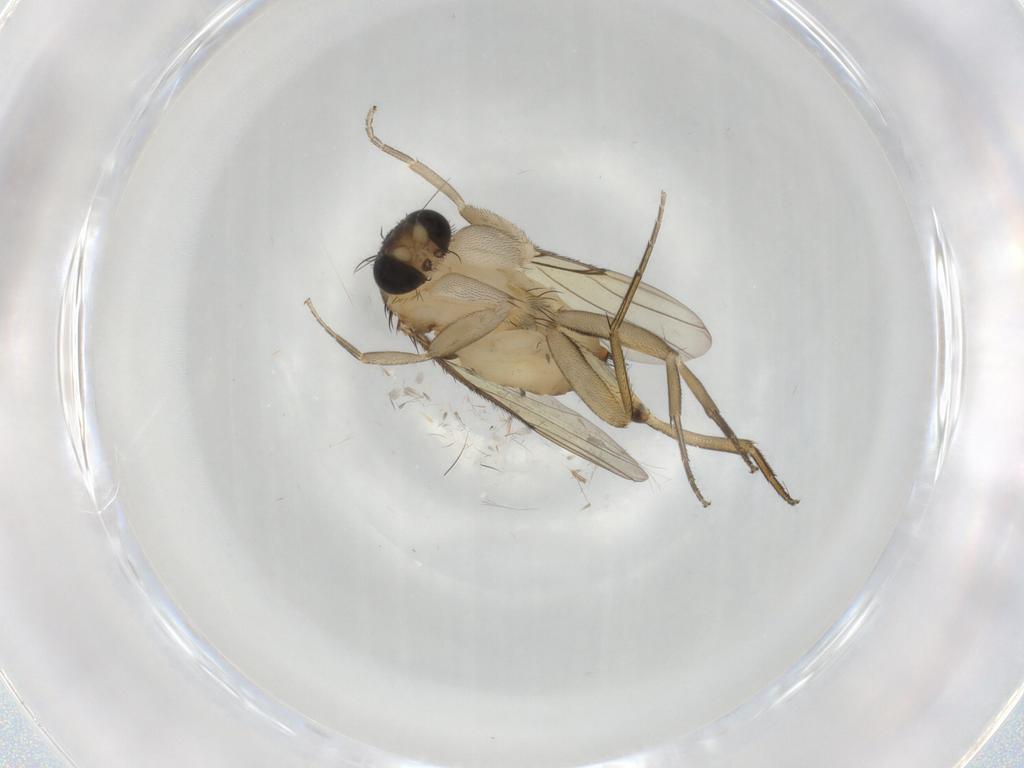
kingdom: Animalia
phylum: Arthropoda
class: Insecta
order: Diptera
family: Phoridae
